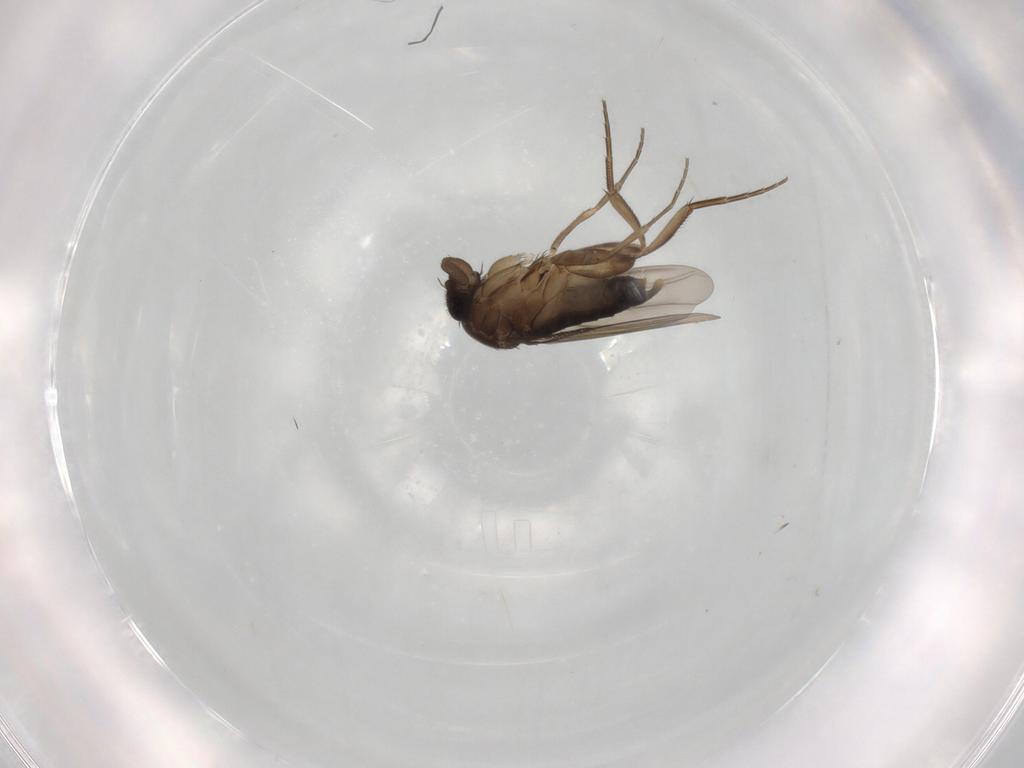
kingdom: Animalia
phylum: Arthropoda
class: Insecta
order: Diptera
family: Phoridae
